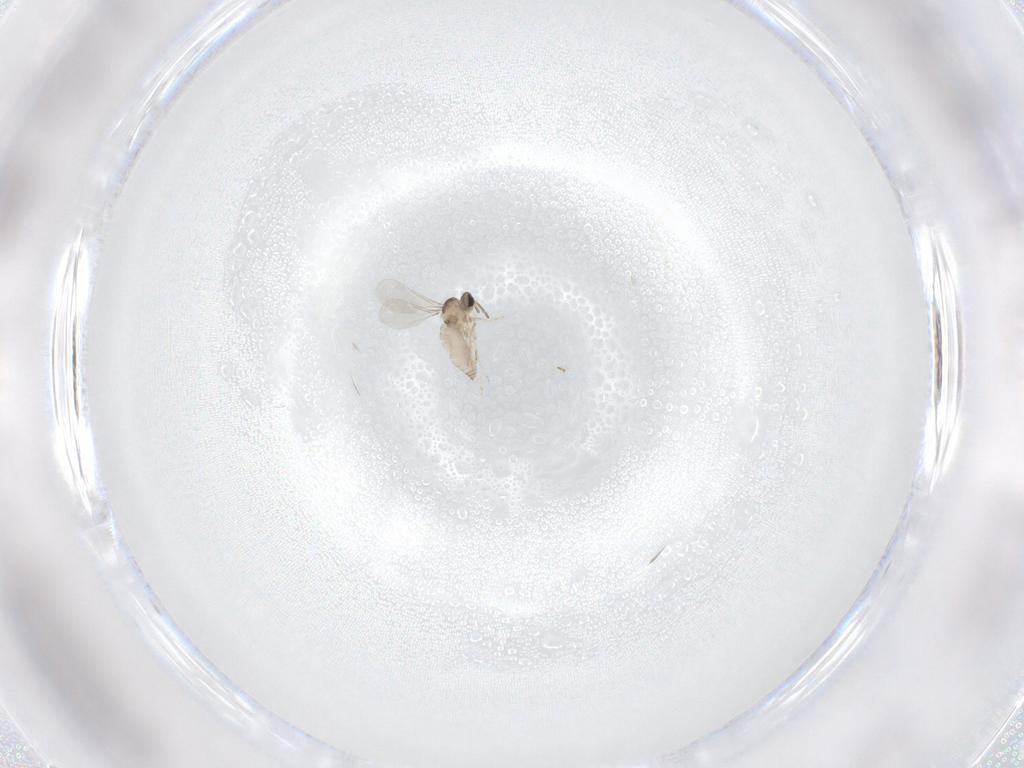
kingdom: Animalia
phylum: Arthropoda
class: Insecta
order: Diptera
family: Cecidomyiidae
